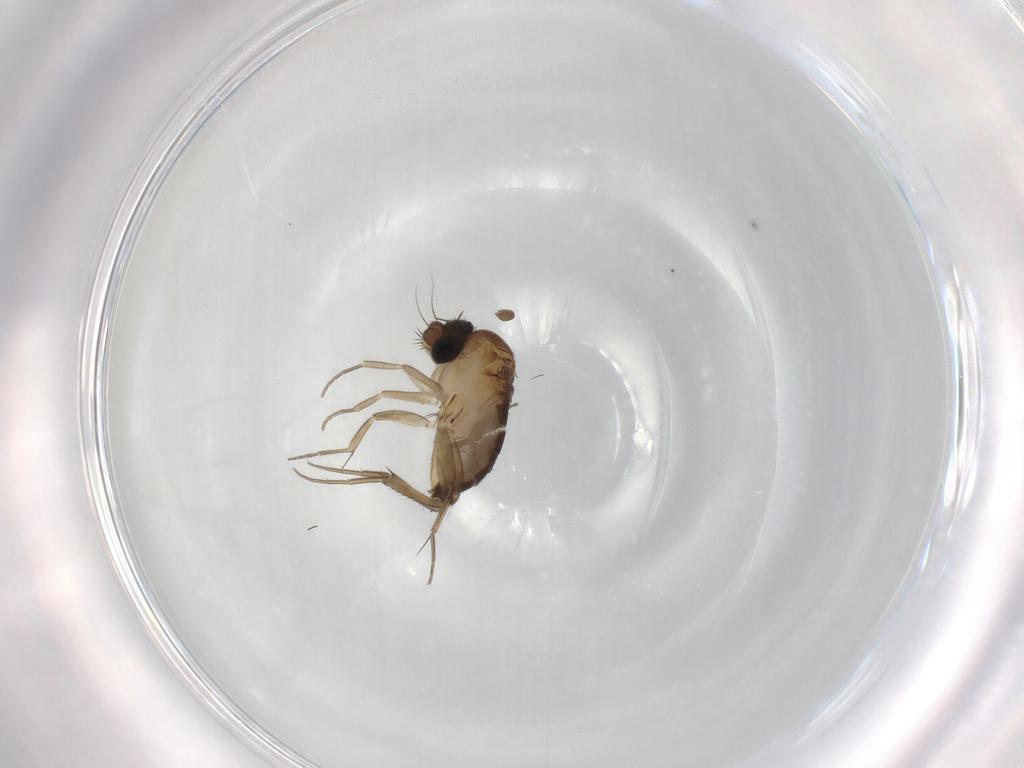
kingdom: Animalia
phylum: Arthropoda
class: Insecta
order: Diptera
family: Phoridae
